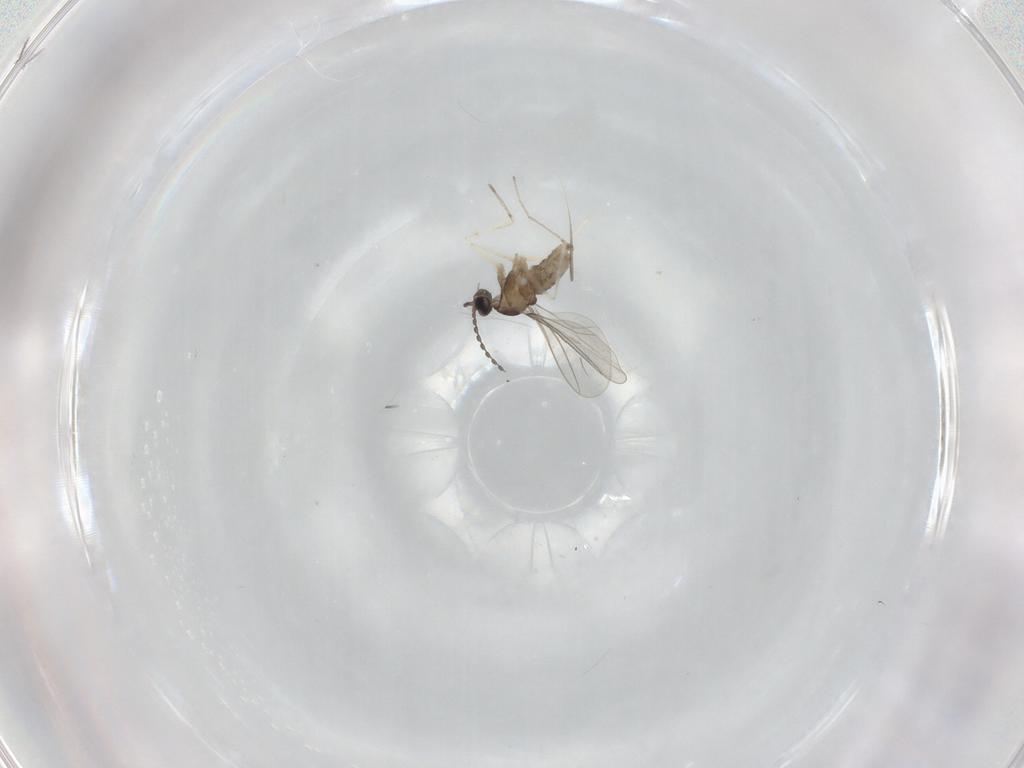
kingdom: Animalia
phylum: Arthropoda
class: Insecta
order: Diptera
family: Cecidomyiidae
